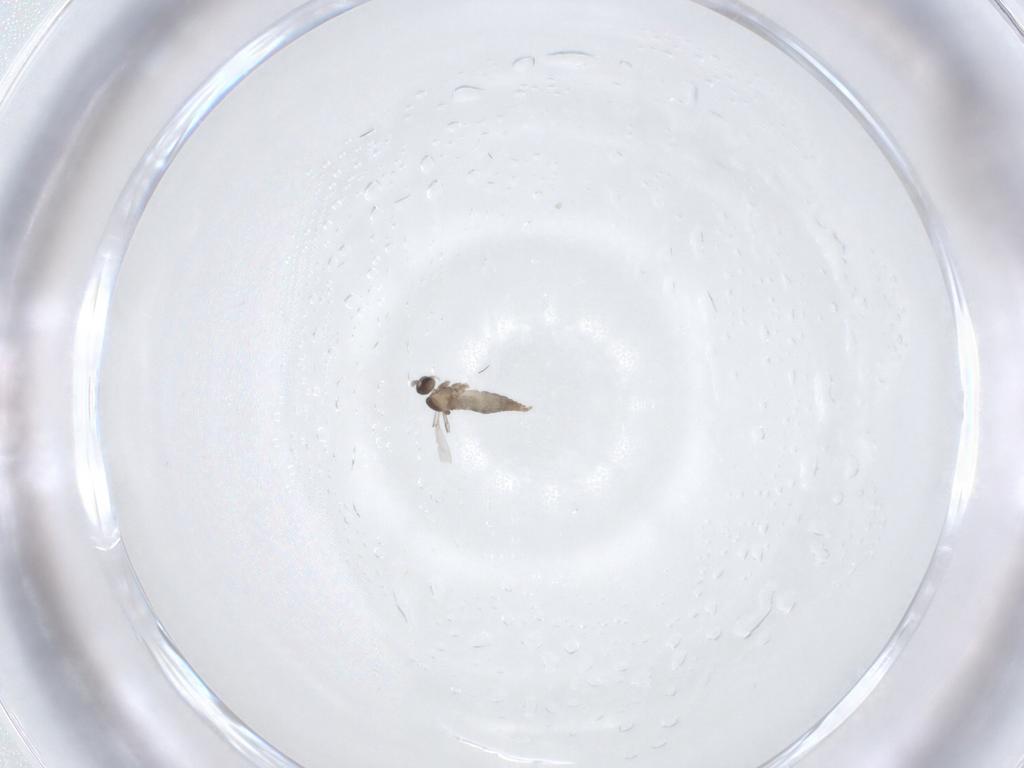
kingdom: Animalia
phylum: Arthropoda
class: Insecta
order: Diptera
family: Cecidomyiidae
